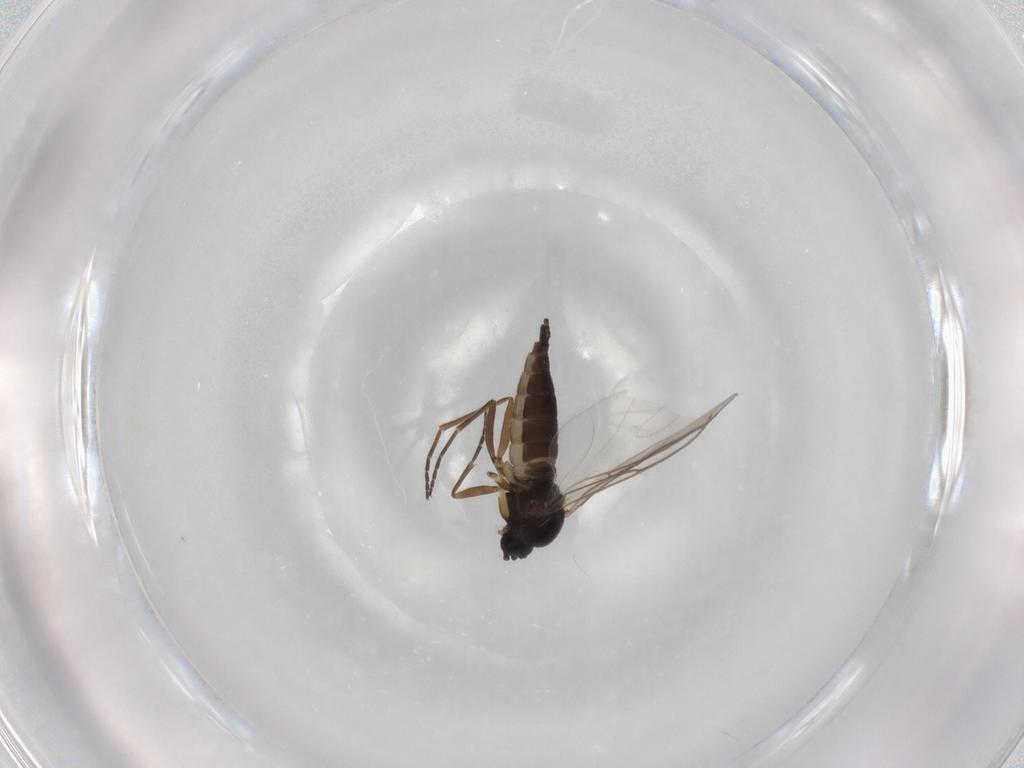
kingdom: Animalia
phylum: Arthropoda
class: Insecta
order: Diptera
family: Sciaridae
